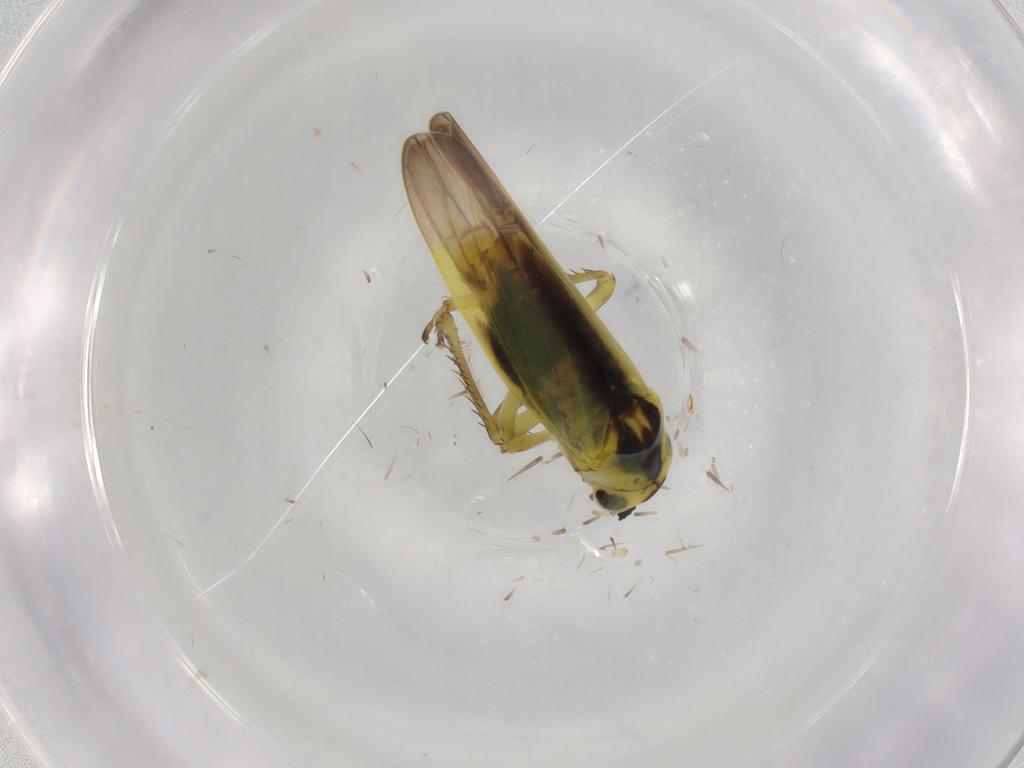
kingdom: Animalia
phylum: Arthropoda
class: Insecta
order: Hemiptera
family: Cicadellidae
